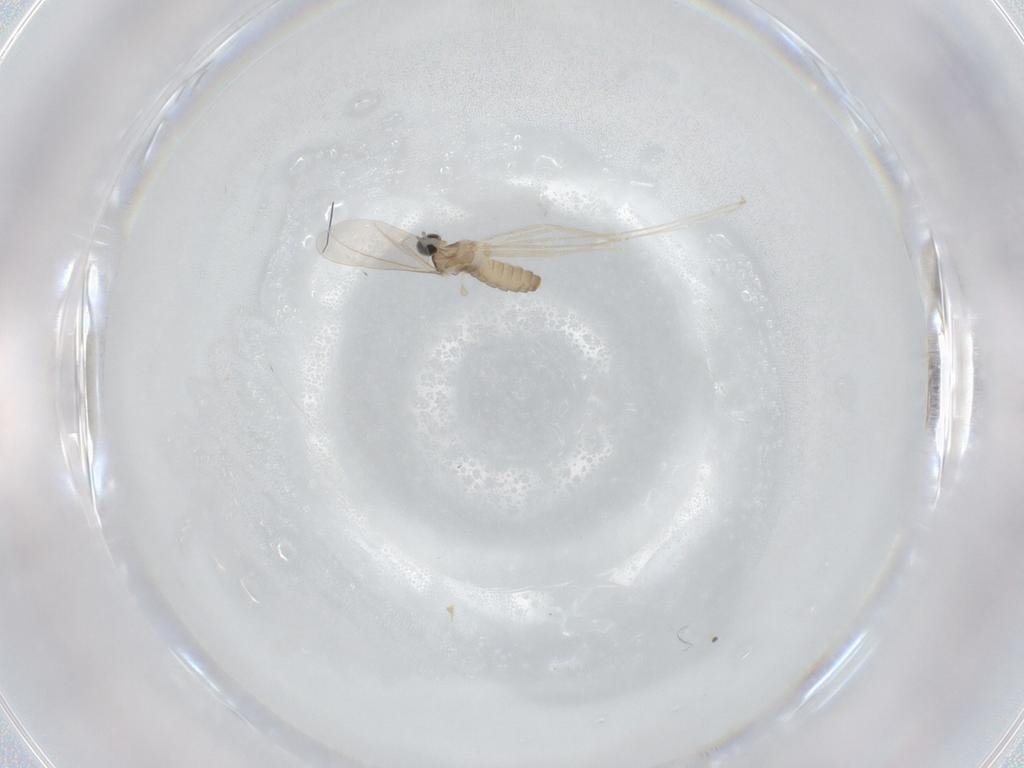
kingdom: Animalia
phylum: Arthropoda
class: Insecta
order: Diptera
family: Cecidomyiidae
